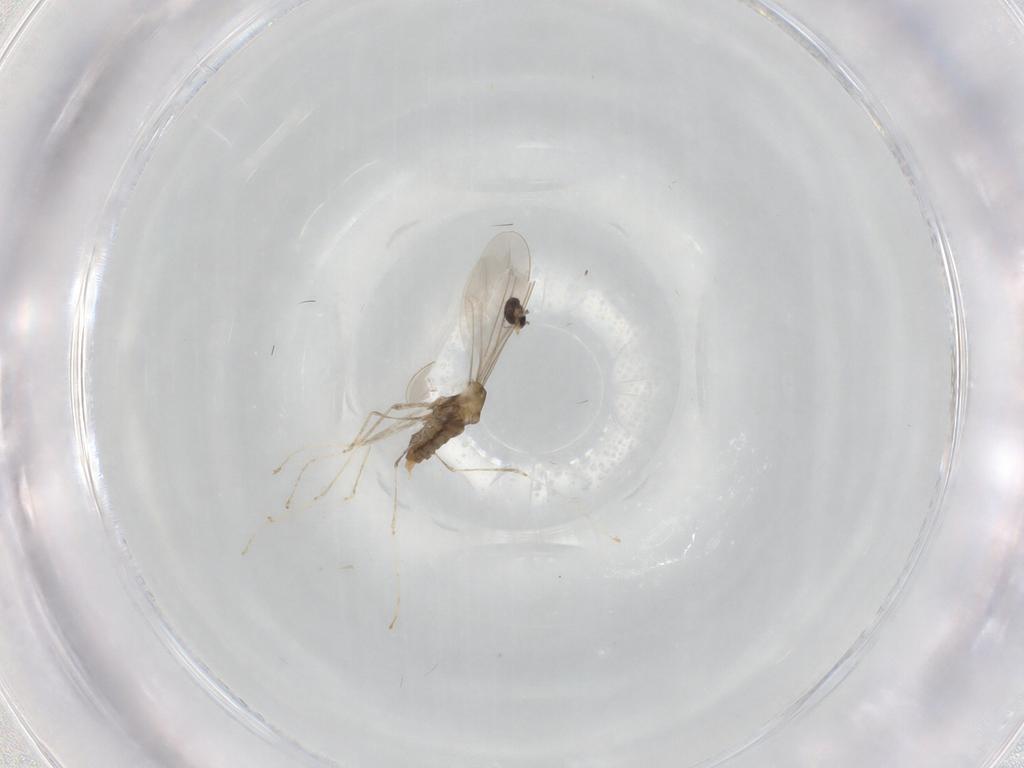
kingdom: Animalia
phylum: Arthropoda
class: Insecta
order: Diptera
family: Cecidomyiidae
